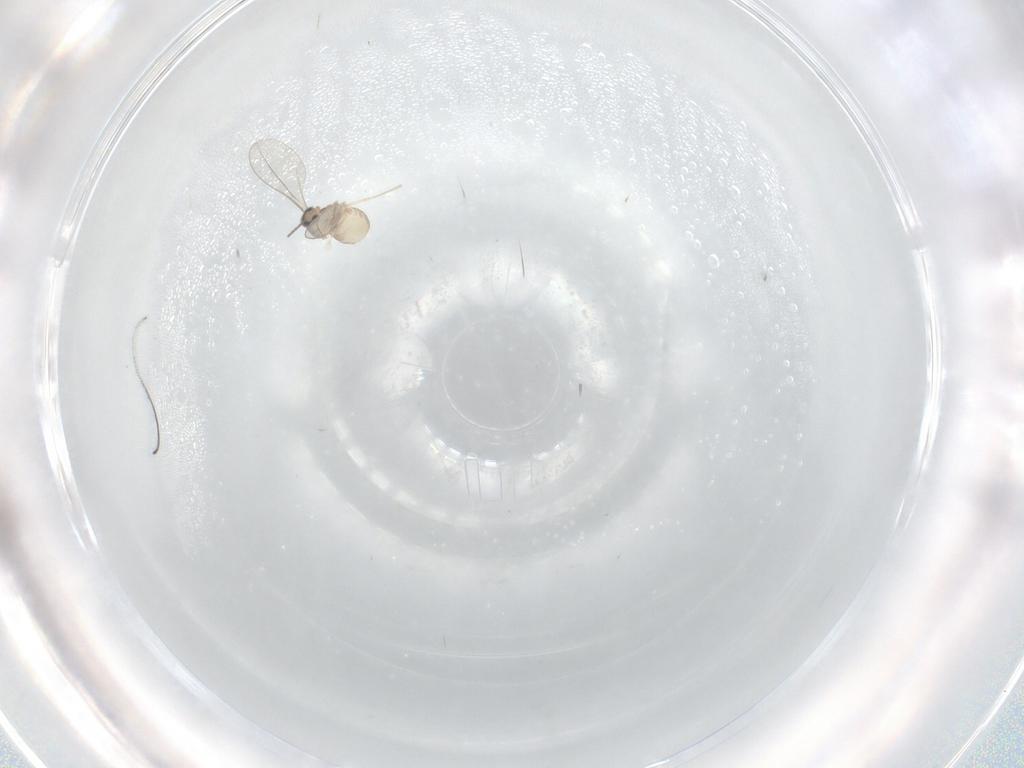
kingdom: Animalia
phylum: Arthropoda
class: Insecta
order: Diptera
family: Cecidomyiidae
